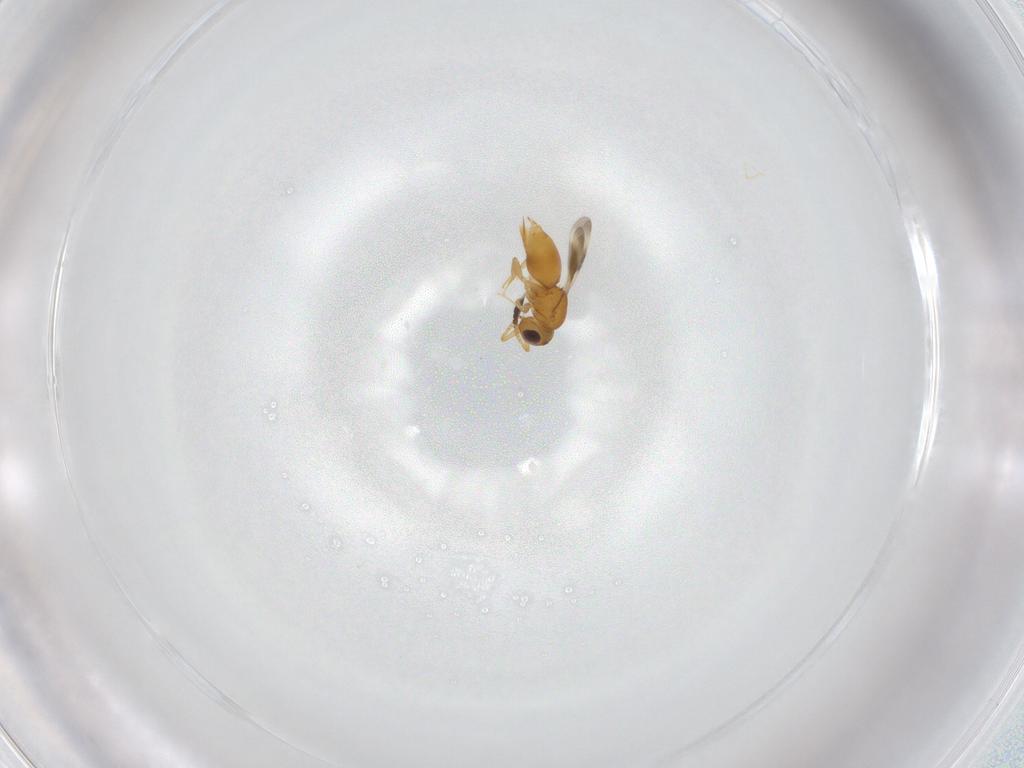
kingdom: Animalia
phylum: Arthropoda
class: Insecta
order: Hymenoptera
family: Ceraphronidae
